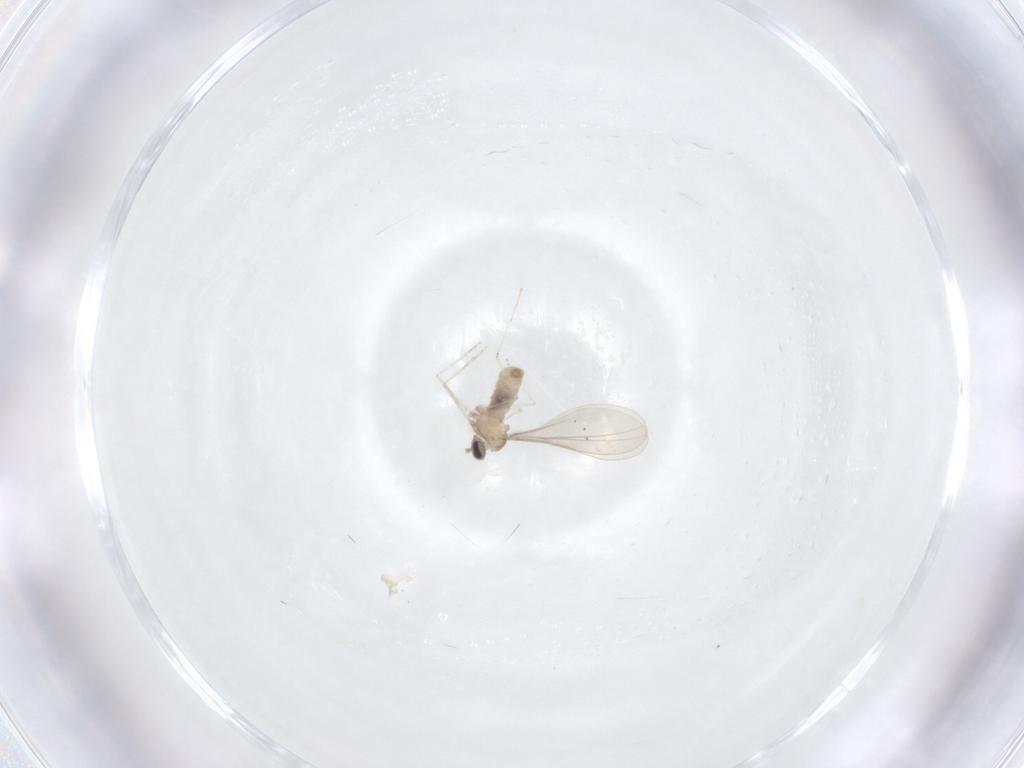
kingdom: Animalia
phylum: Arthropoda
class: Insecta
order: Diptera
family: Cecidomyiidae
